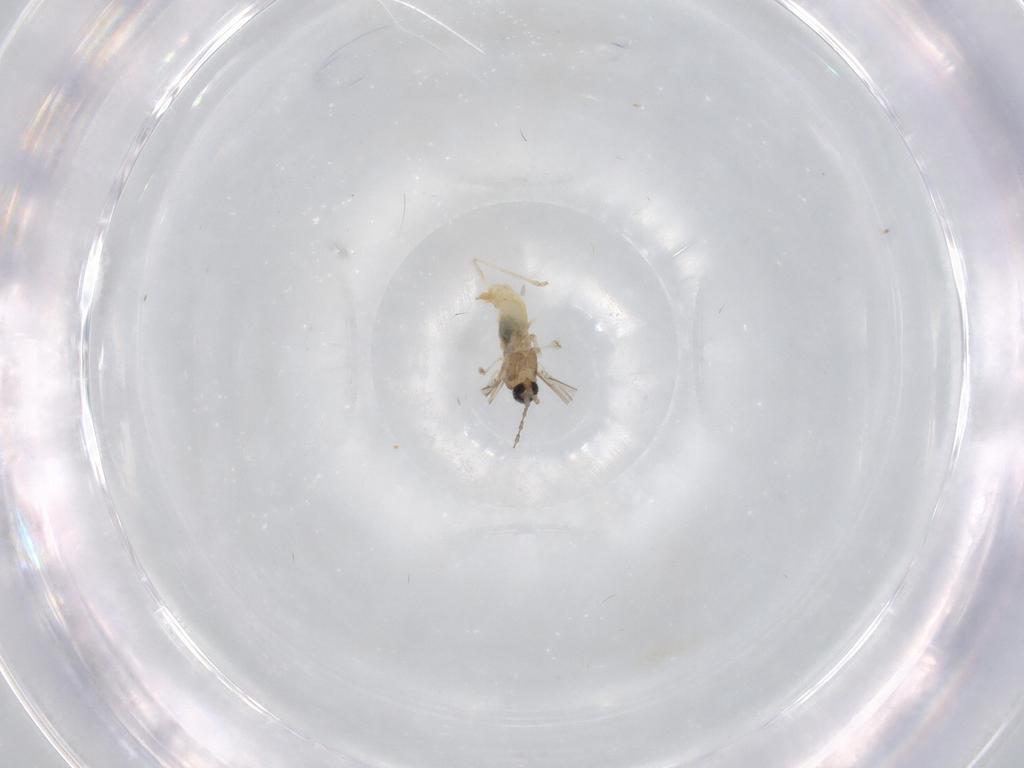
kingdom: Animalia
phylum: Arthropoda
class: Insecta
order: Diptera
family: Cecidomyiidae
